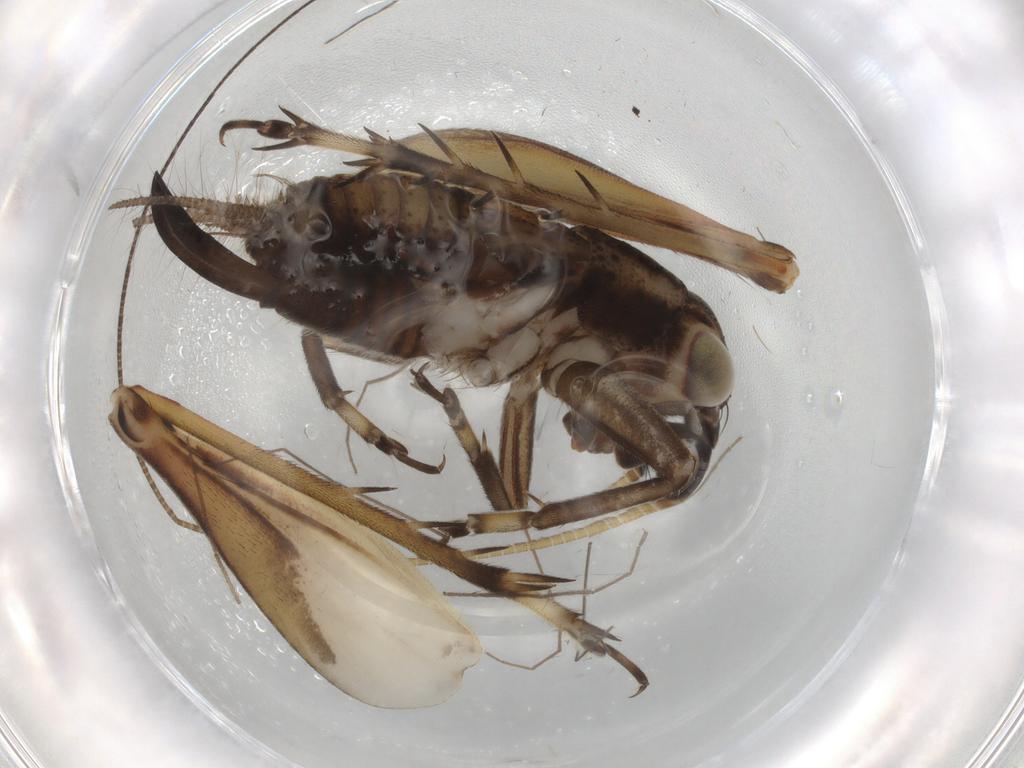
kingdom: Animalia
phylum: Arthropoda
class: Insecta
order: Orthoptera
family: Trigonidiidae
